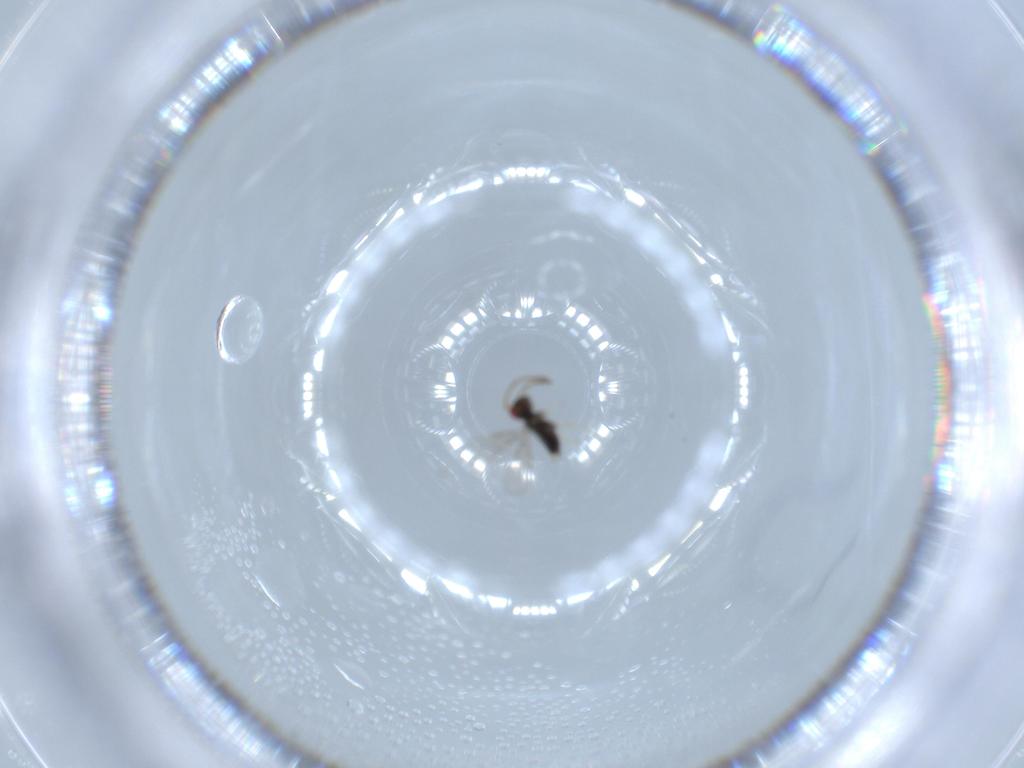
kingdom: Animalia
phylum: Arthropoda
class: Insecta
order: Hymenoptera
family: Azotidae
